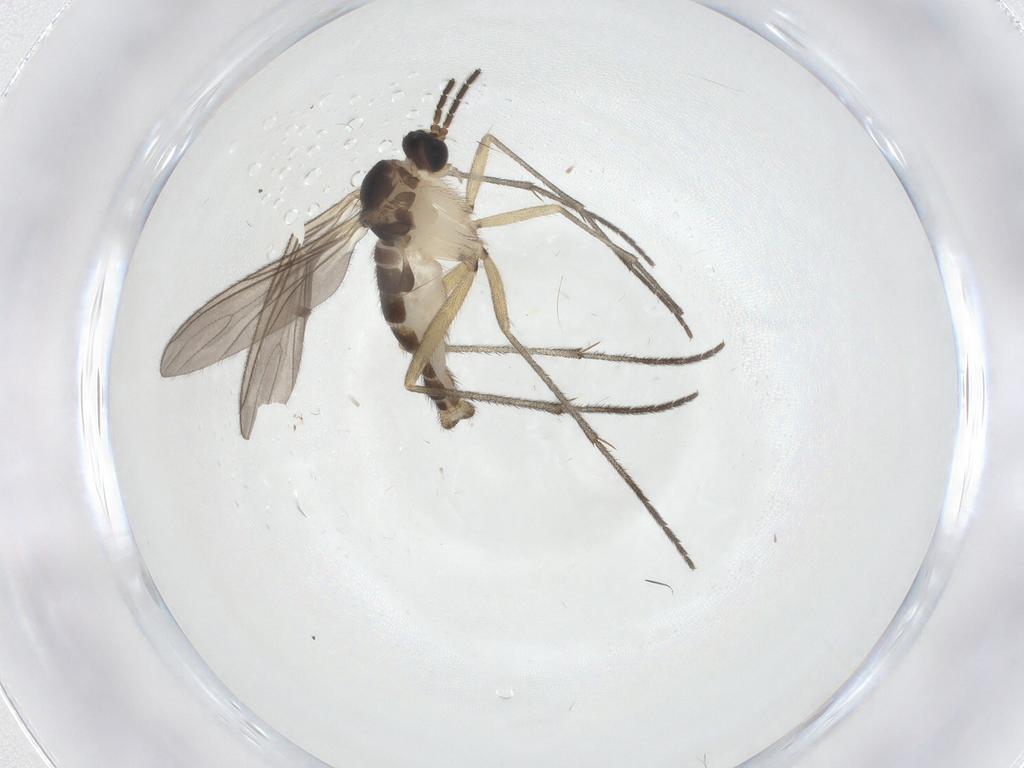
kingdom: Animalia
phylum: Arthropoda
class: Insecta
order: Diptera
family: Sciaridae
